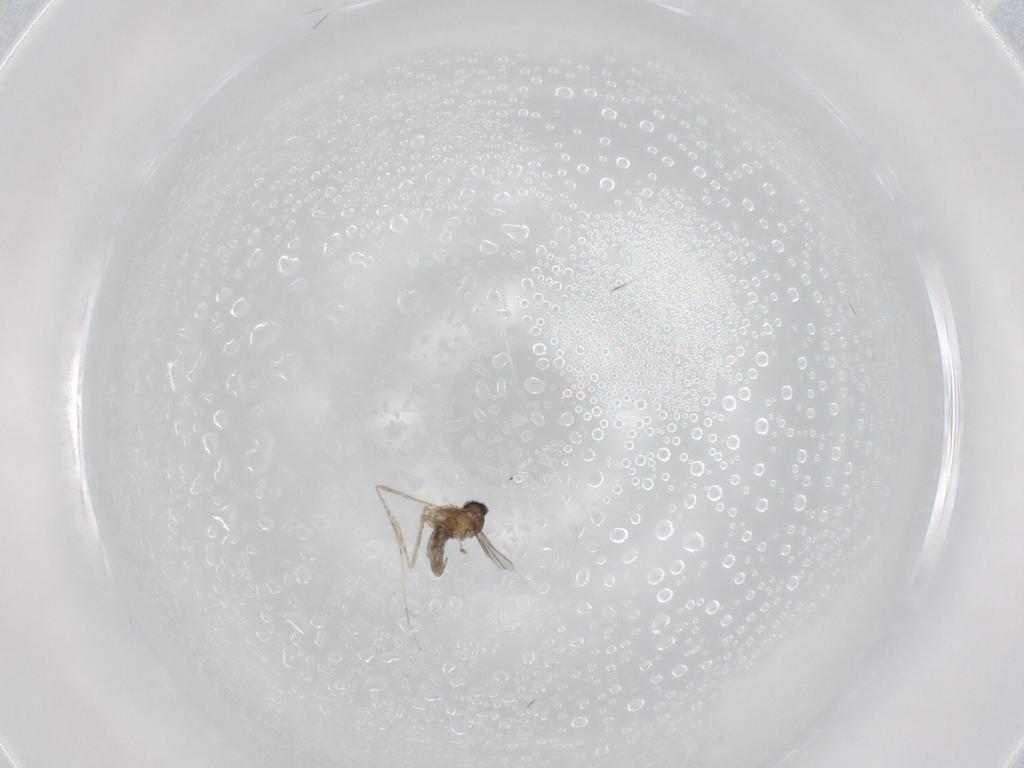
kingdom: Animalia
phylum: Arthropoda
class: Insecta
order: Diptera
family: Cecidomyiidae
